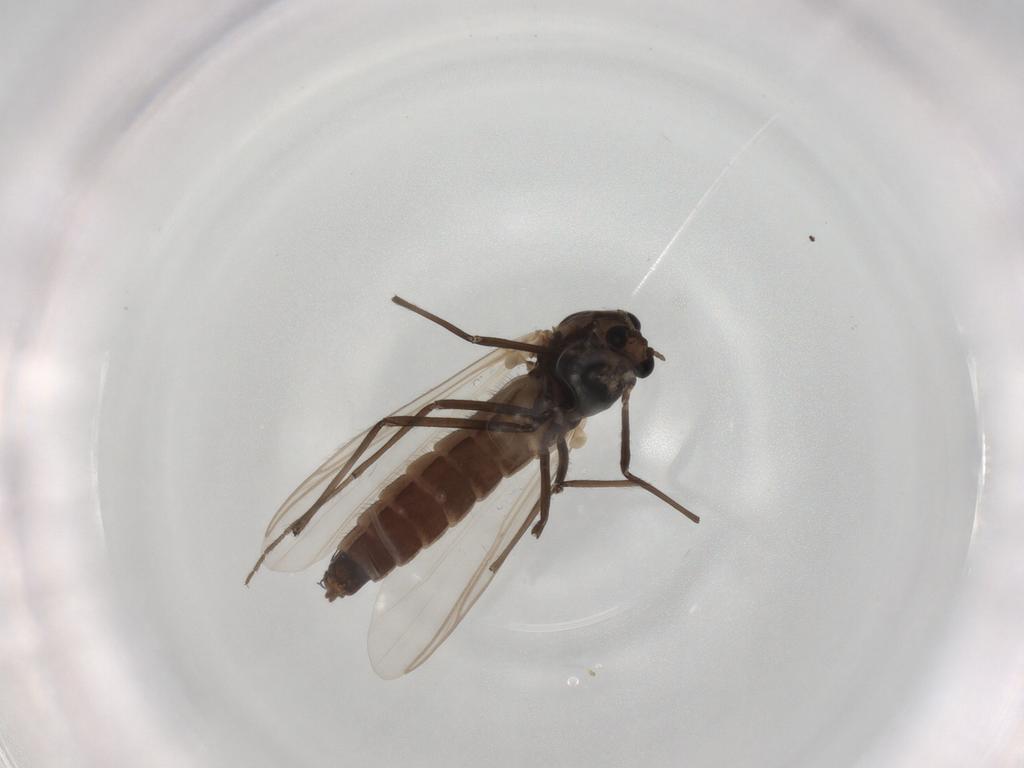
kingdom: Animalia
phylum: Arthropoda
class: Insecta
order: Diptera
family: Chironomidae
